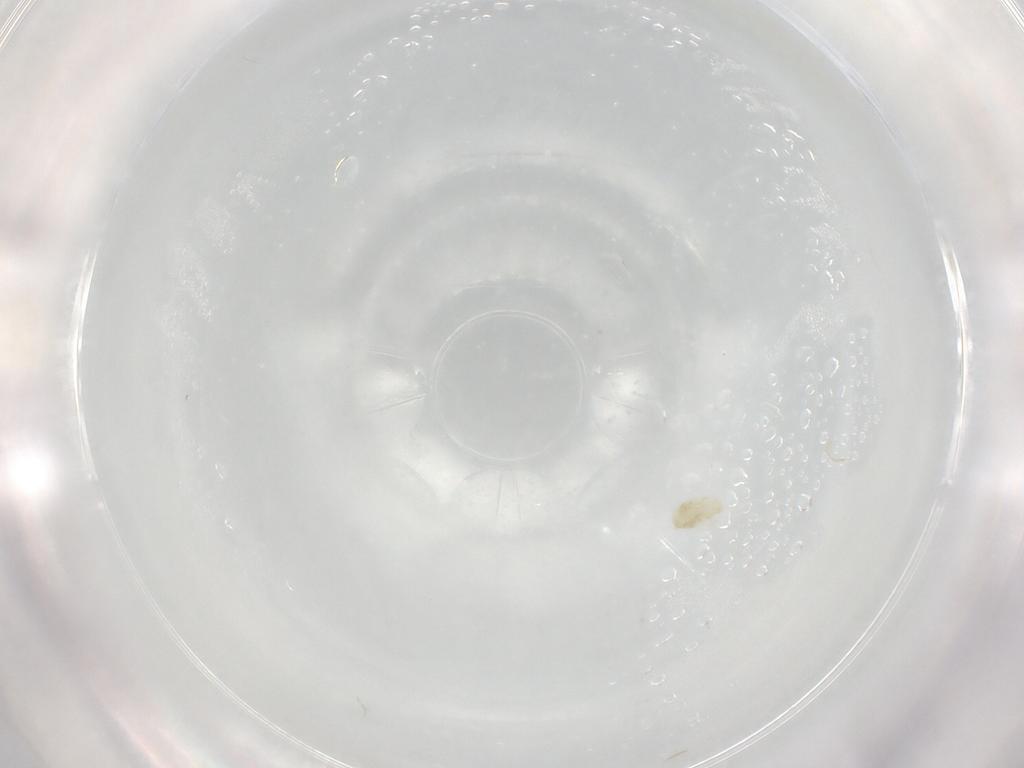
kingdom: Animalia
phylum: Arthropoda
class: Arachnida
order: Trombidiformes
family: Eupodidae
